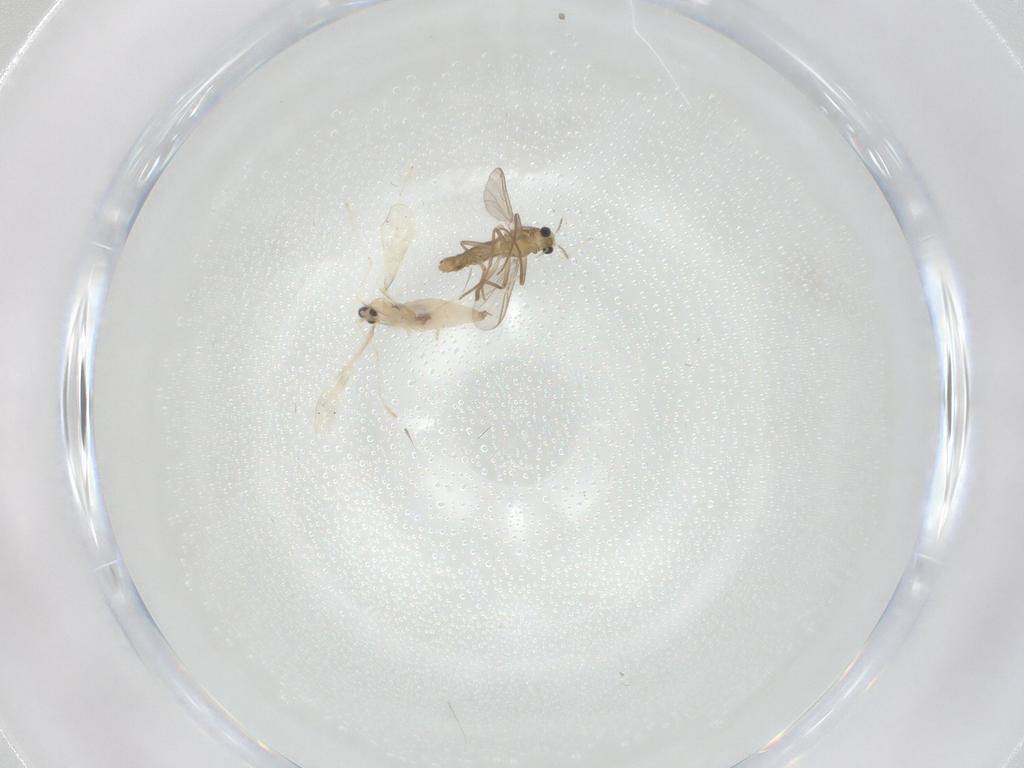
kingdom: Animalia
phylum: Arthropoda
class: Insecta
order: Diptera
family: Chironomidae
